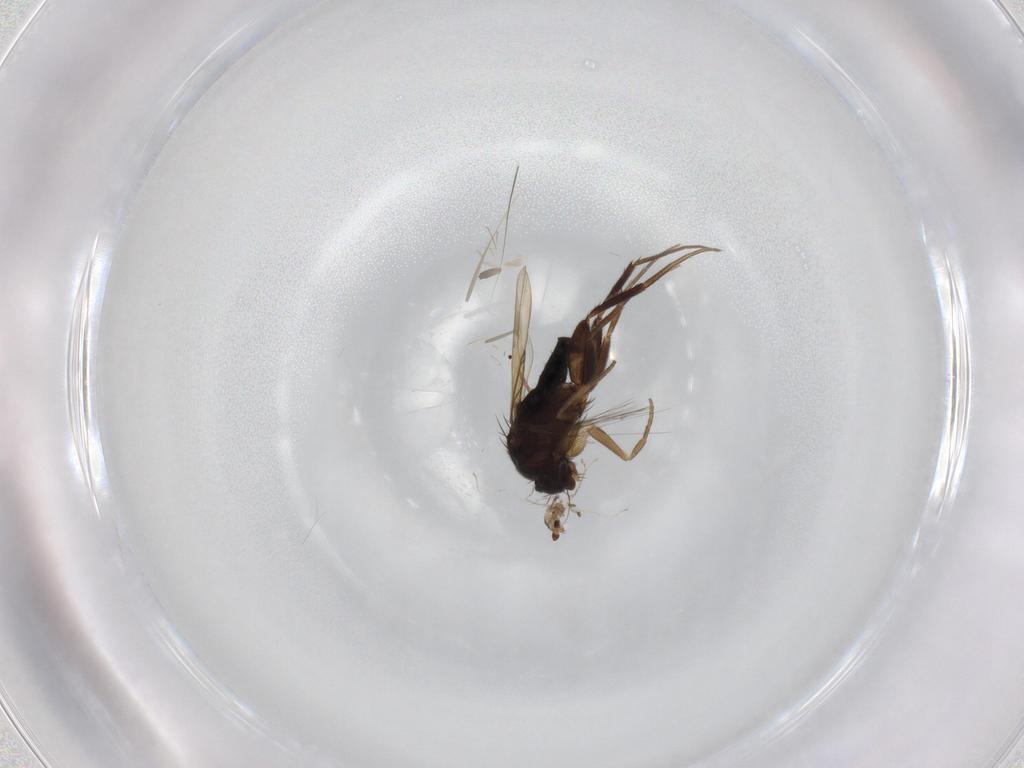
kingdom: Animalia
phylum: Arthropoda
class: Insecta
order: Diptera
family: Phoridae
